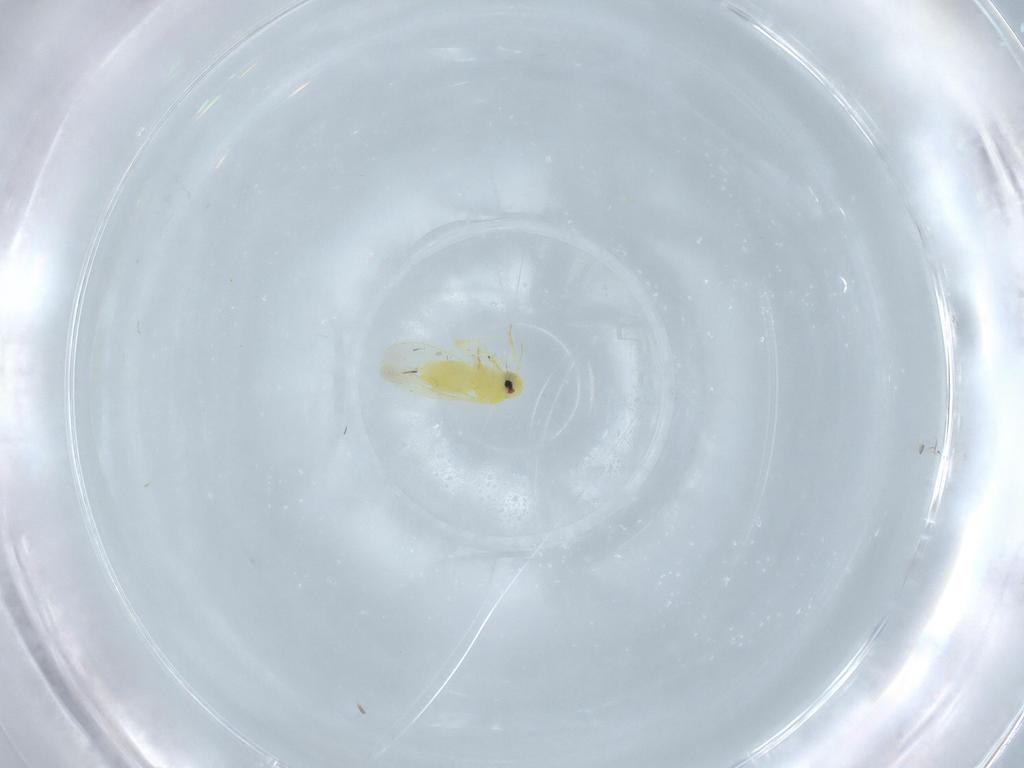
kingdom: Animalia
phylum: Arthropoda
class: Insecta
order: Hemiptera
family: Aleyrodidae
